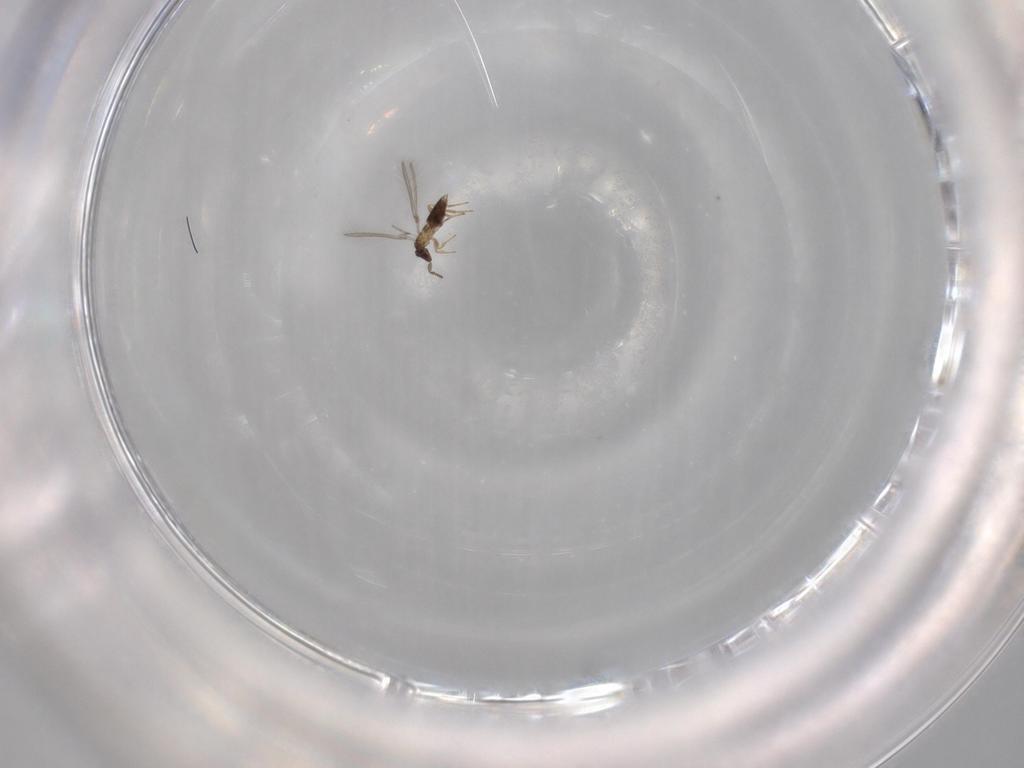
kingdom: Animalia
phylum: Arthropoda
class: Insecta
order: Hymenoptera
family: Mymaridae
